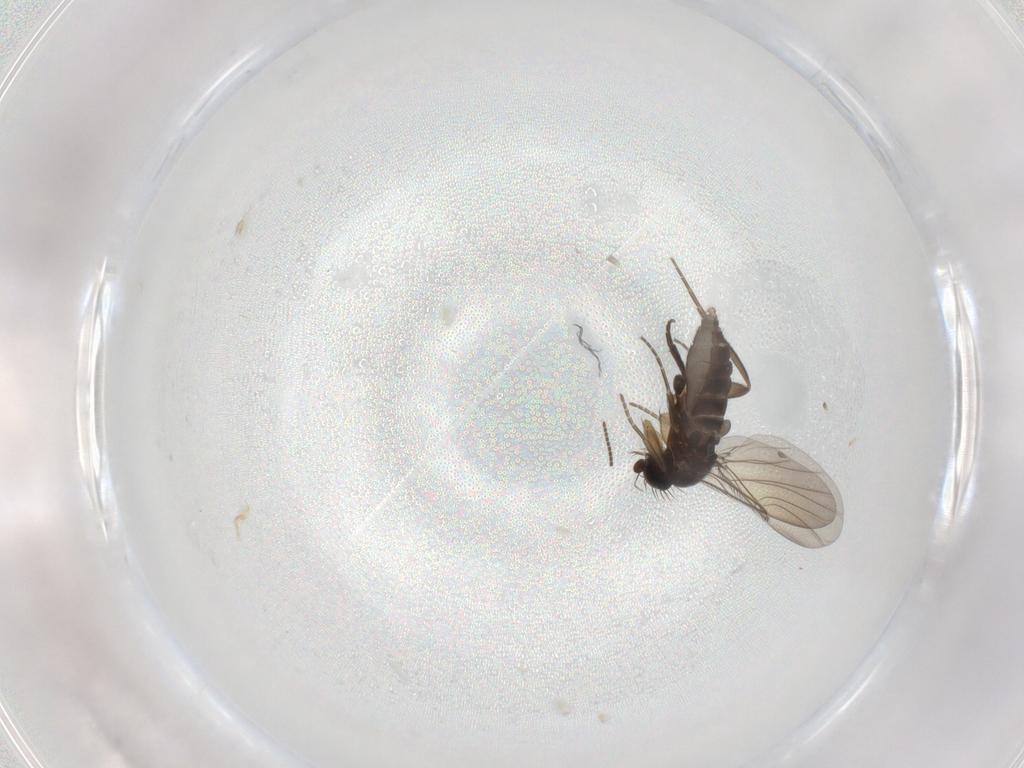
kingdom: Animalia
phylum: Arthropoda
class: Insecta
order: Diptera
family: Phoridae
